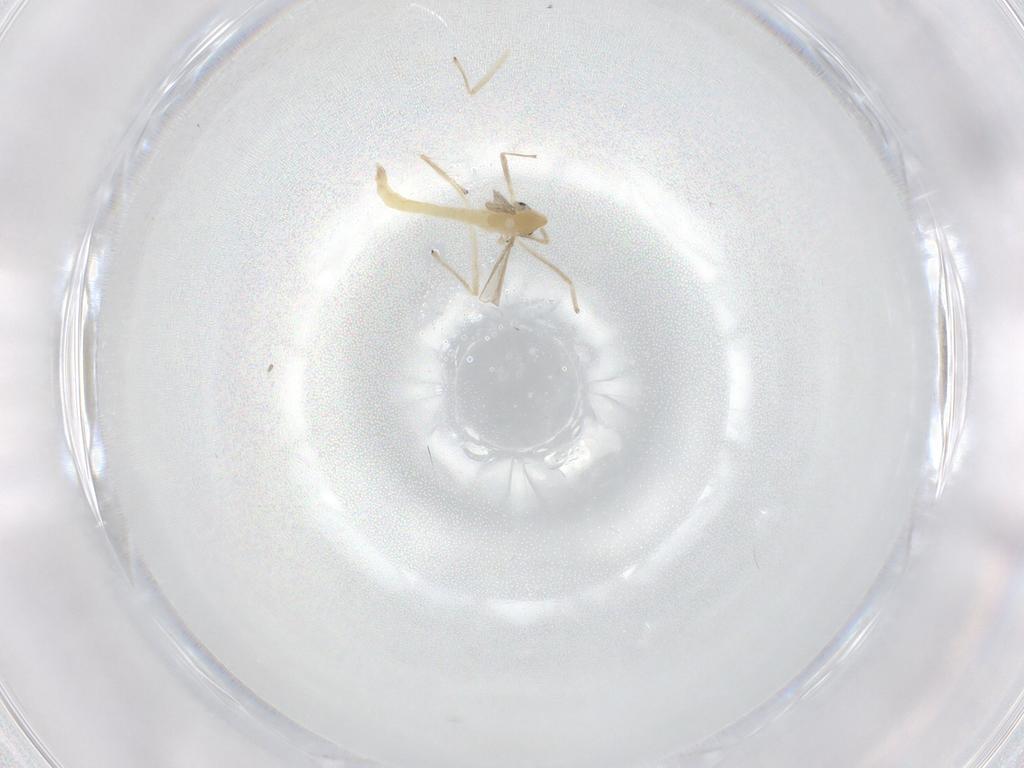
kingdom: Animalia
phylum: Arthropoda
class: Insecta
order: Diptera
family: Chironomidae
